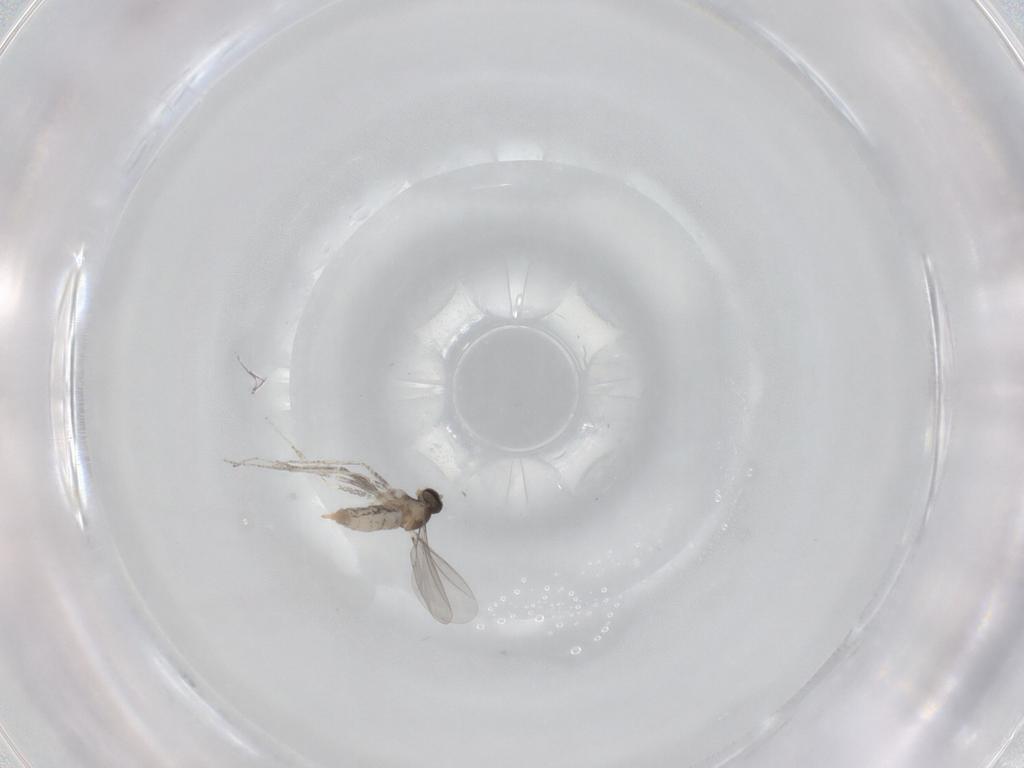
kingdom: Animalia
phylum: Arthropoda
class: Insecta
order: Diptera
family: Cecidomyiidae
